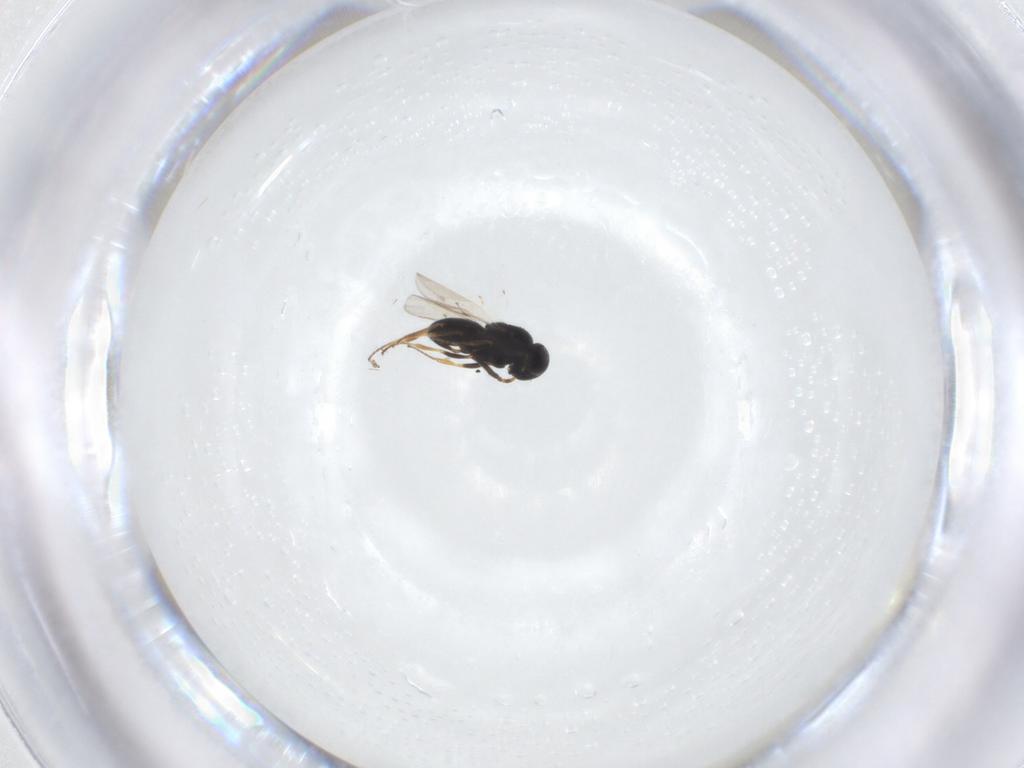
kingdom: Animalia
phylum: Arthropoda
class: Insecta
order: Hymenoptera
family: Scelionidae
